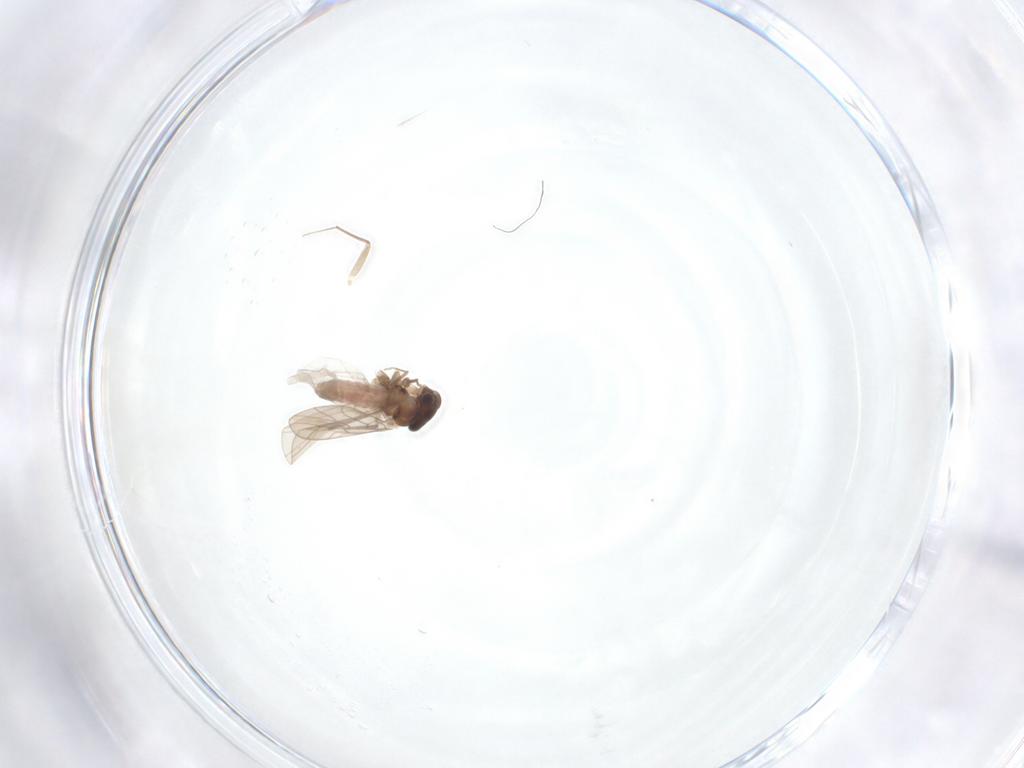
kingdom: Animalia
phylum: Arthropoda
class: Insecta
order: Psocodea
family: Lepidopsocidae
